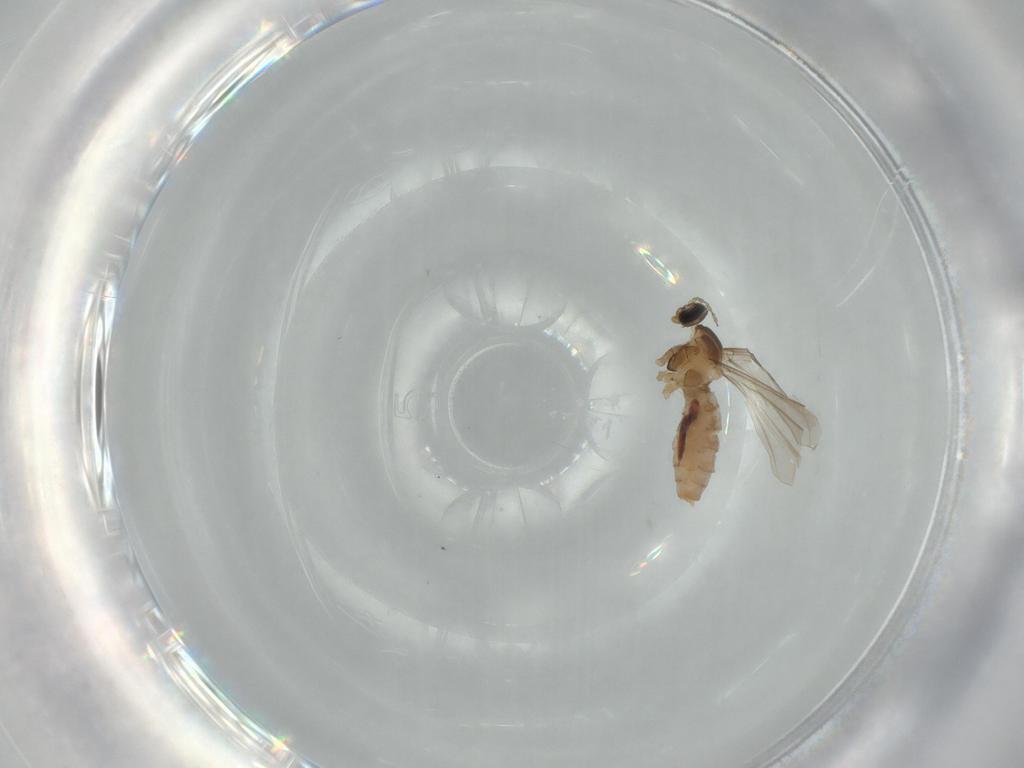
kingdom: Animalia
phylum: Arthropoda
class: Insecta
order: Diptera
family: Cecidomyiidae
